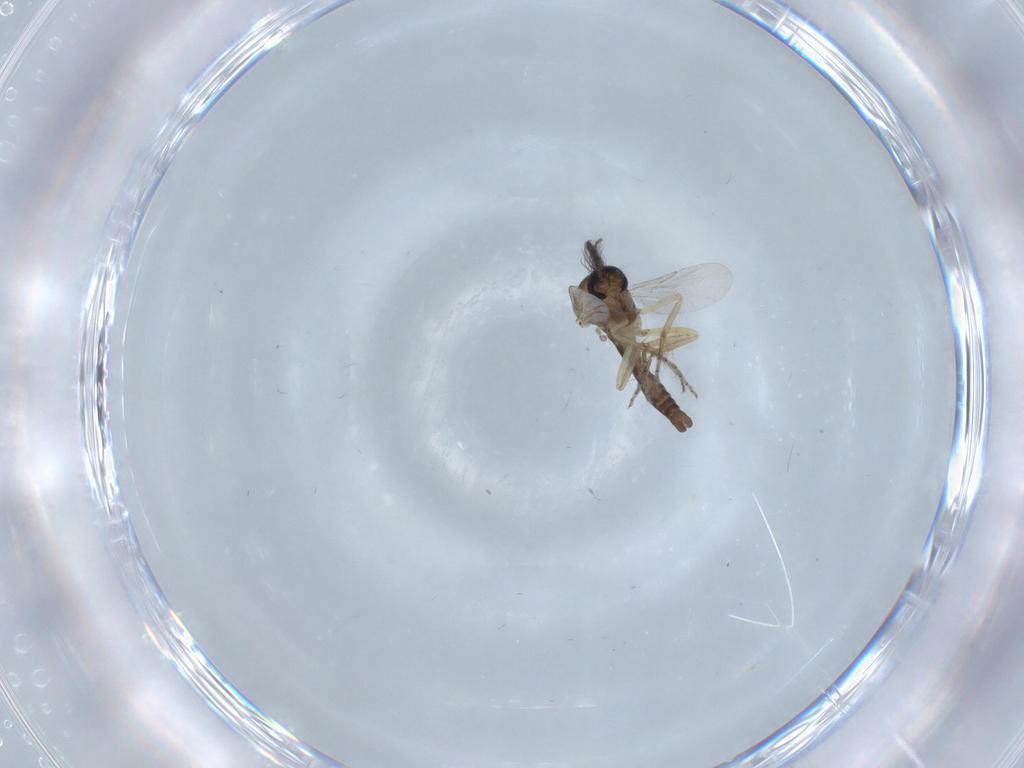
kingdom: Animalia
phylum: Arthropoda
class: Insecta
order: Diptera
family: Ceratopogonidae
